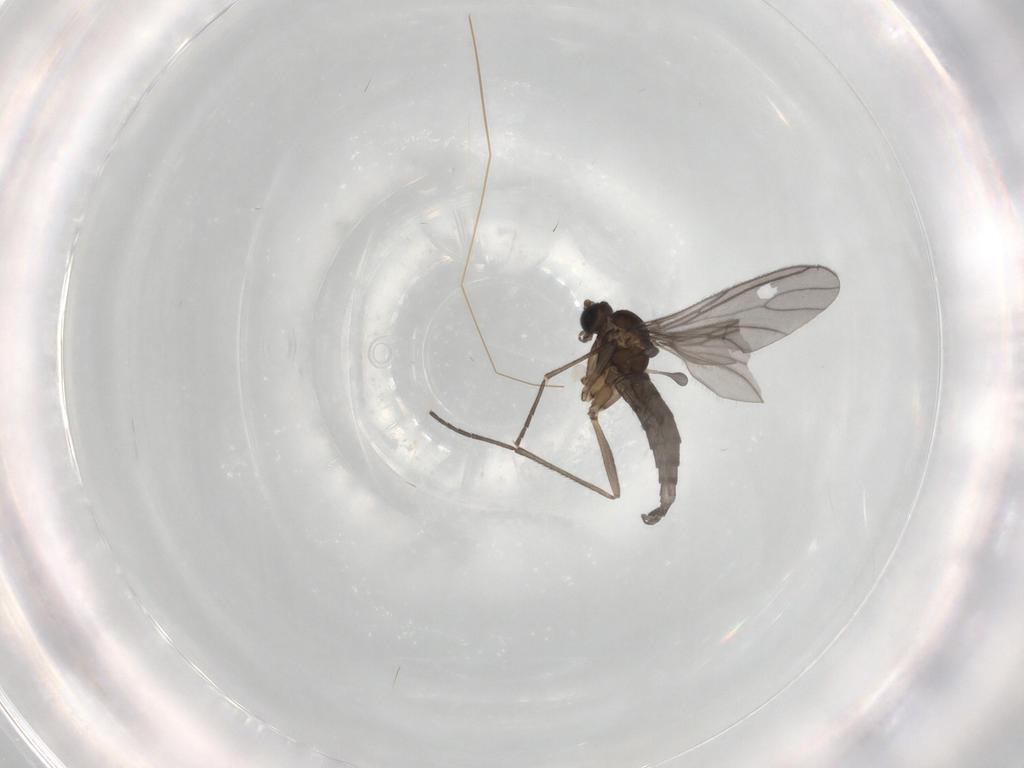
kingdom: Animalia
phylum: Arthropoda
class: Insecta
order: Diptera
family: Sciaridae
